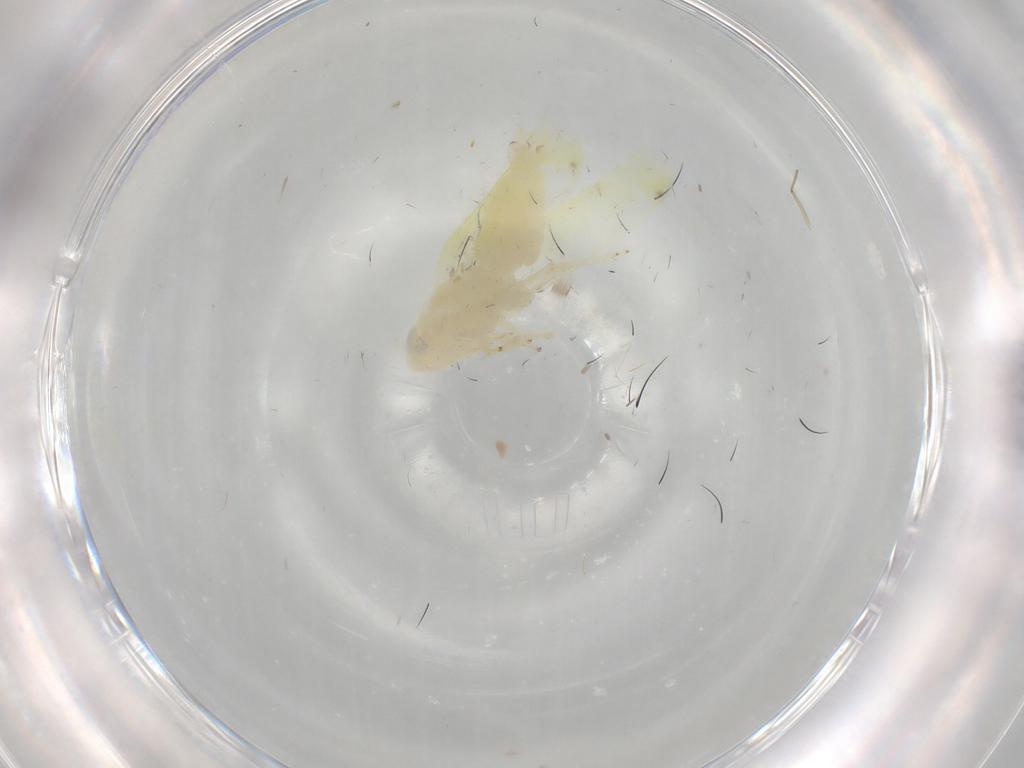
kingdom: Animalia
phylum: Arthropoda
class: Insecta
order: Hemiptera
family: Cicadellidae
